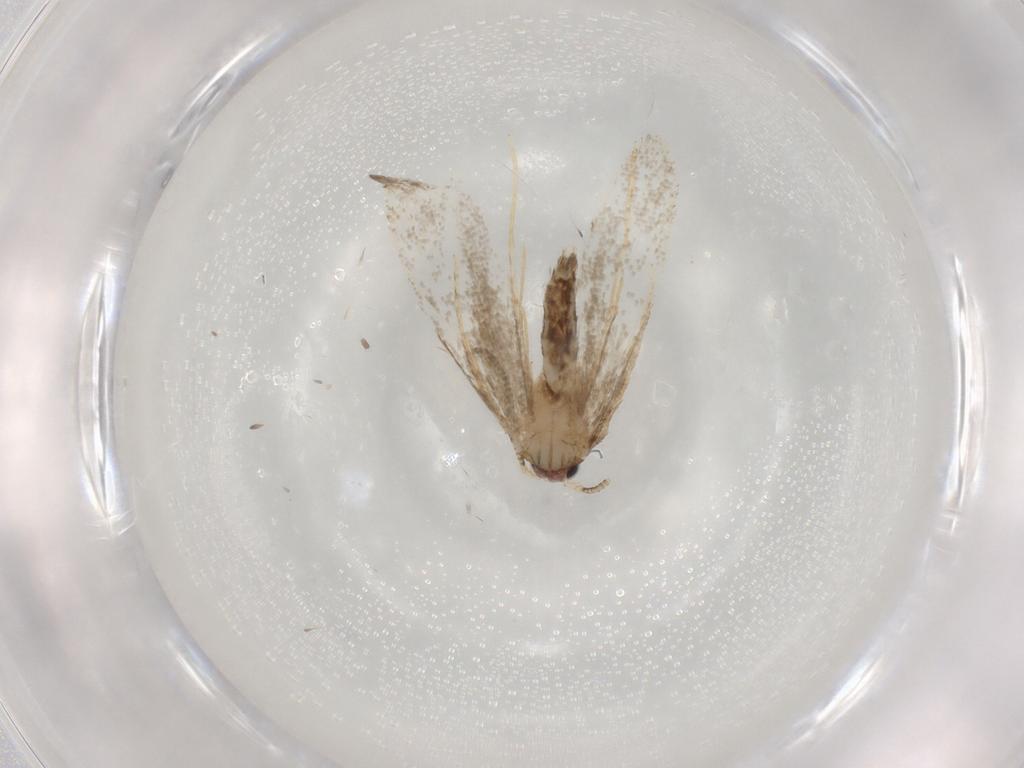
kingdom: Animalia
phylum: Arthropoda
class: Insecta
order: Lepidoptera
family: Tineidae
